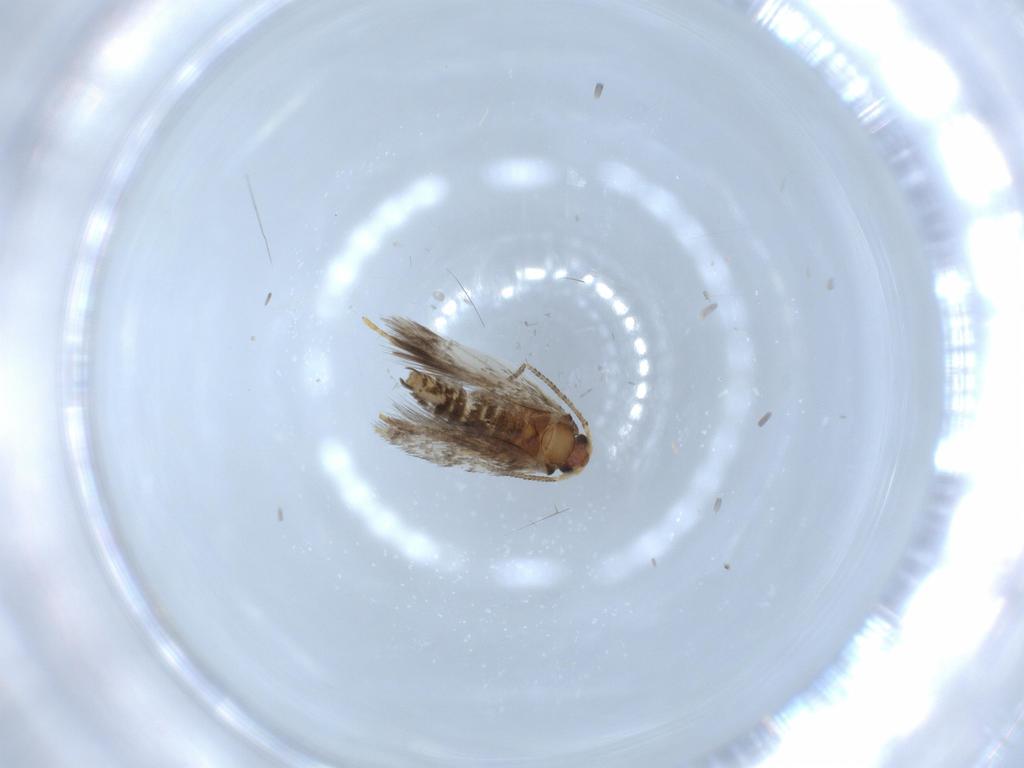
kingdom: Animalia
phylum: Arthropoda
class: Insecta
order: Lepidoptera
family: Nepticulidae
